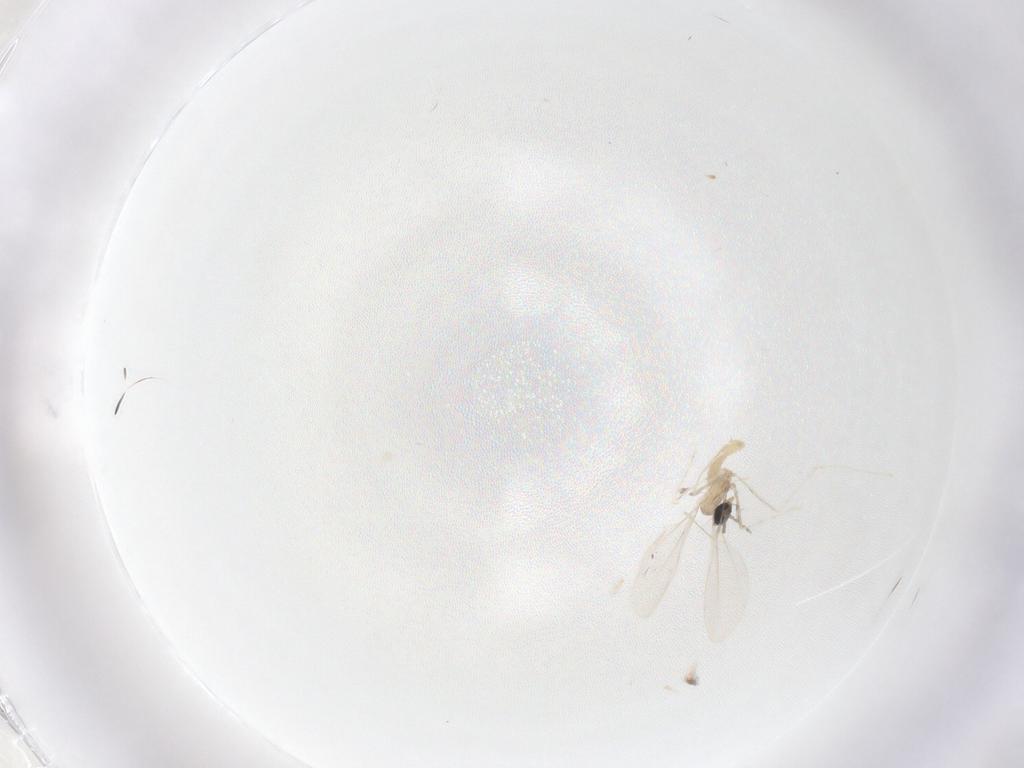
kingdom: Animalia
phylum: Arthropoda
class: Insecta
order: Diptera
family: Cecidomyiidae
